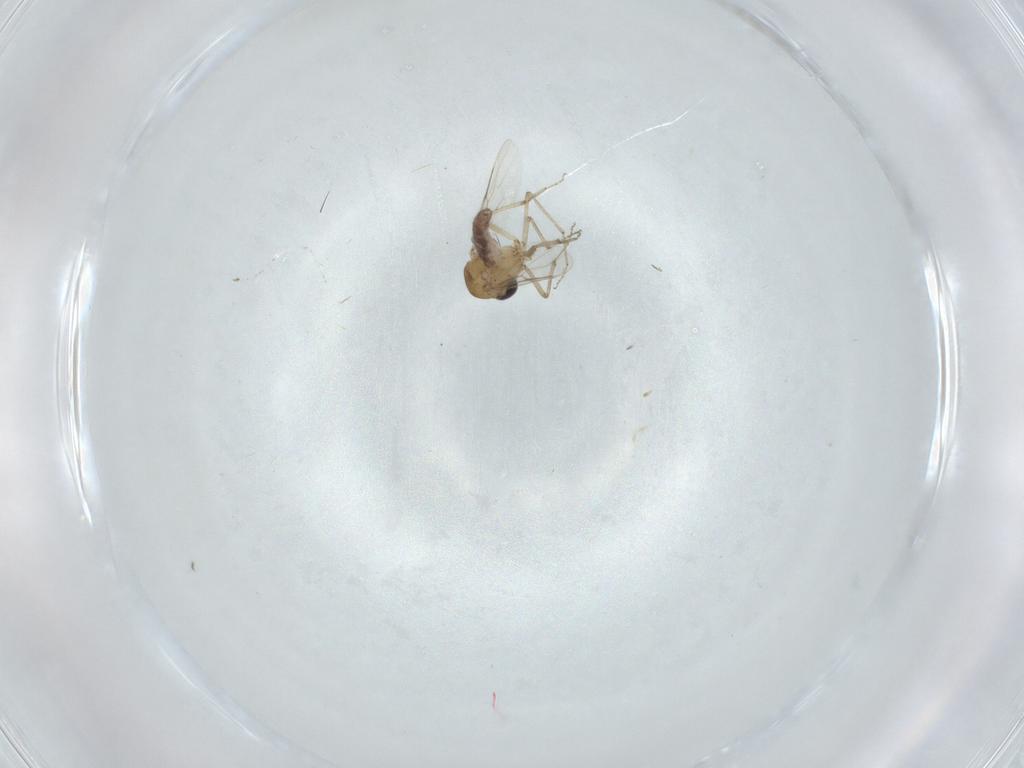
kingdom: Animalia
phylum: Arthropoda
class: Insecta
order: Diptera
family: Ceratopogonidae
